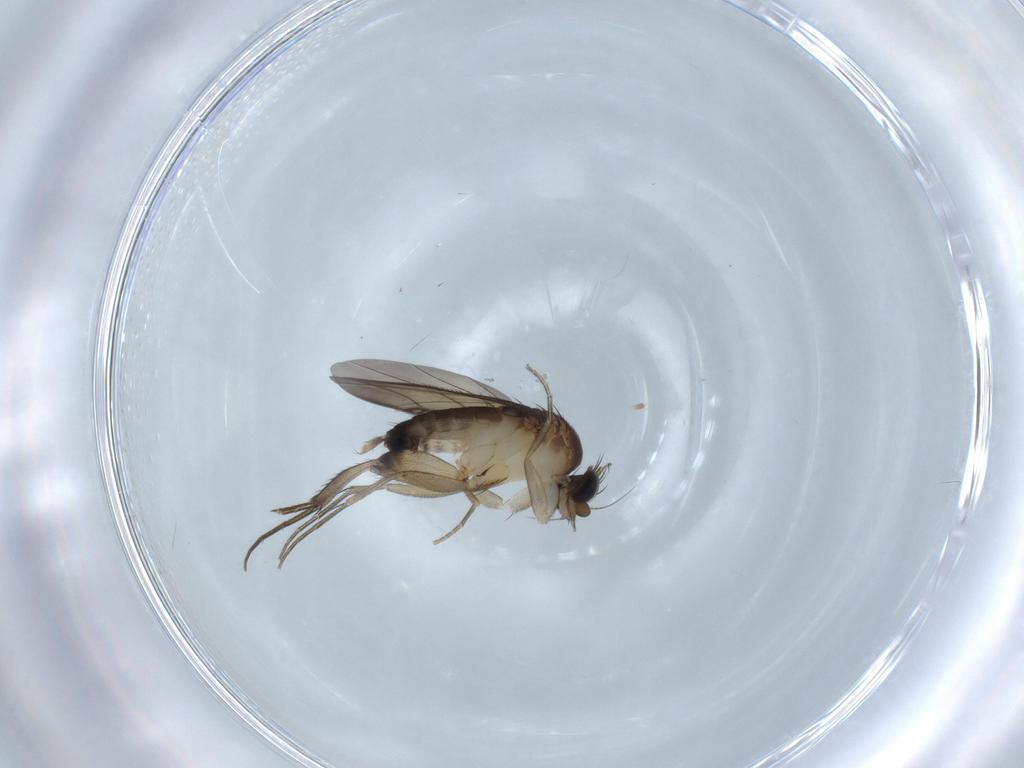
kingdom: Animalia
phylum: Arthropoda
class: Insecta
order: Diptera
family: Phoridae
